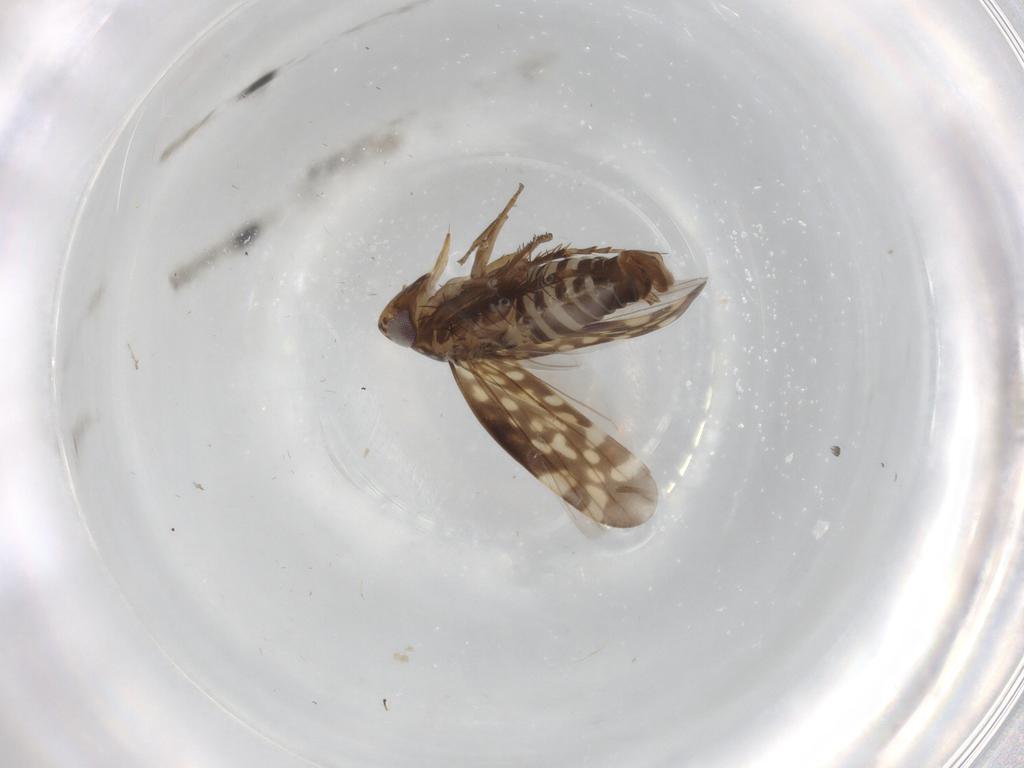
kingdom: Animalia
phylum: Arthropoda
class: Insecta
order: Hemiptera
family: Cicadellidae
